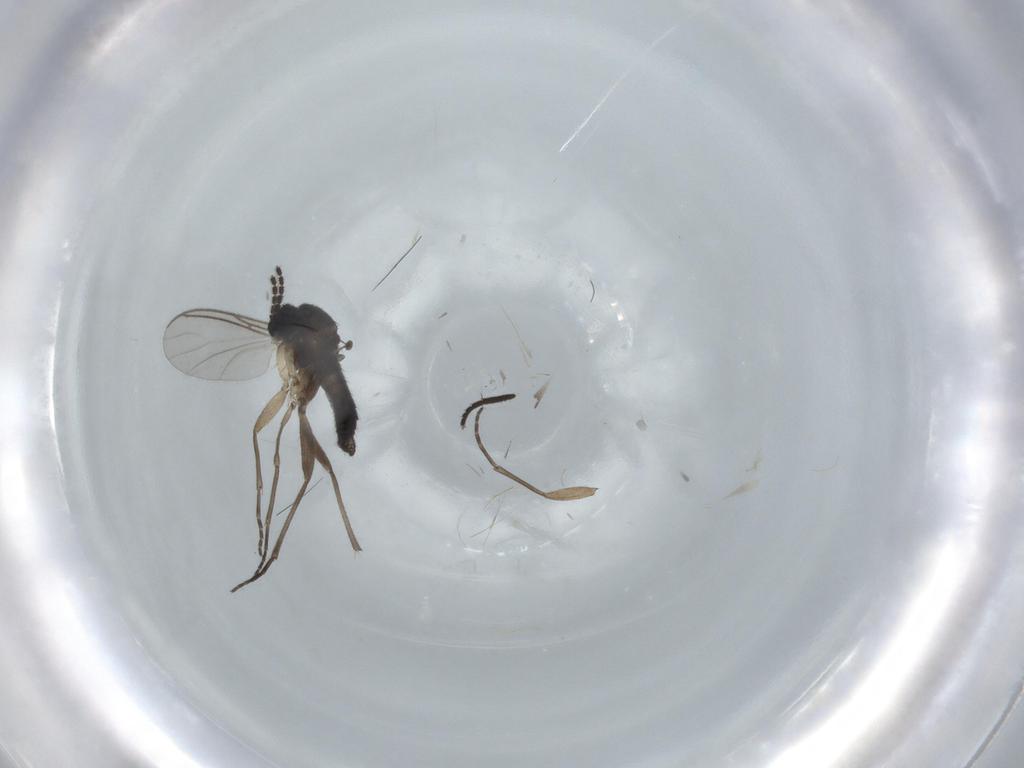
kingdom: Animalia
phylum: Arthropoda
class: Insecta
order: Diptera
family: Sciaridae
